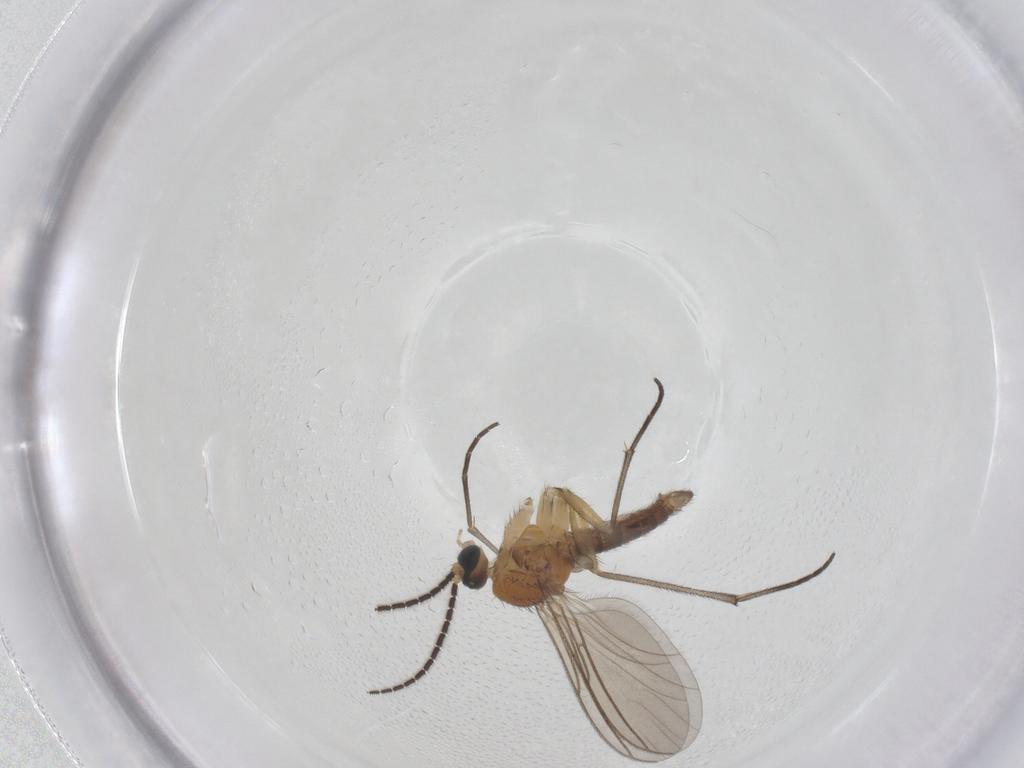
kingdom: Animalia
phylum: Arthropoda
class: Insecta
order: Diptera
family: Sciaridae
